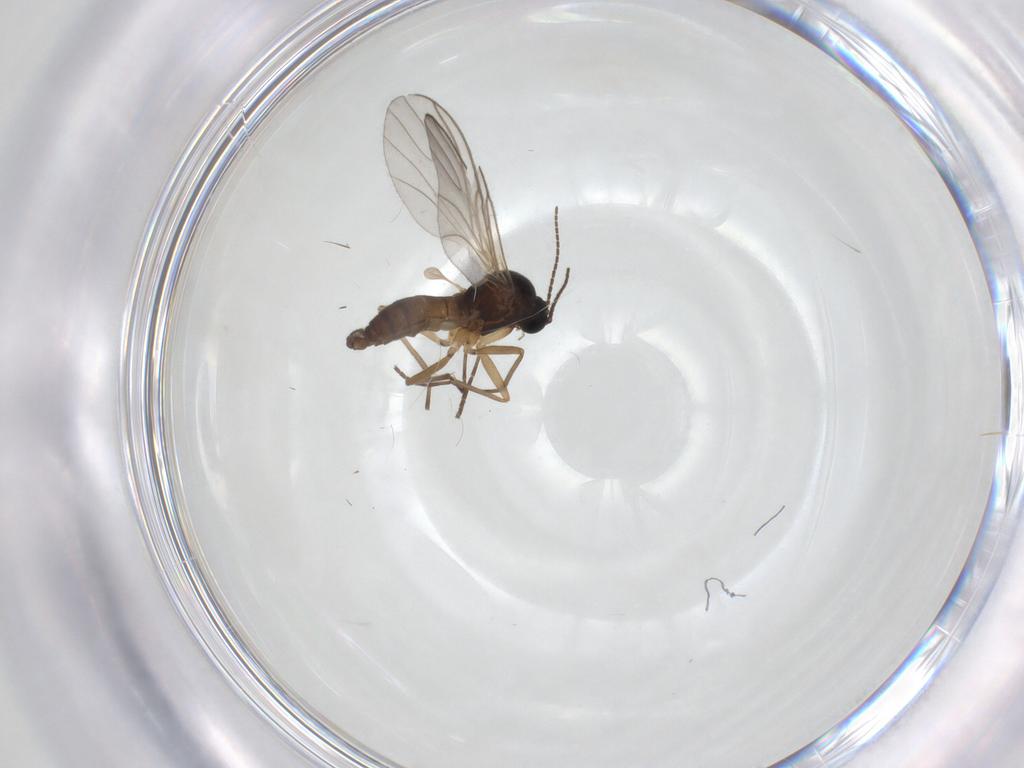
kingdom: Animalia
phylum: Arthropoda
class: Insecta
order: Diptera
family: Sciaridae
